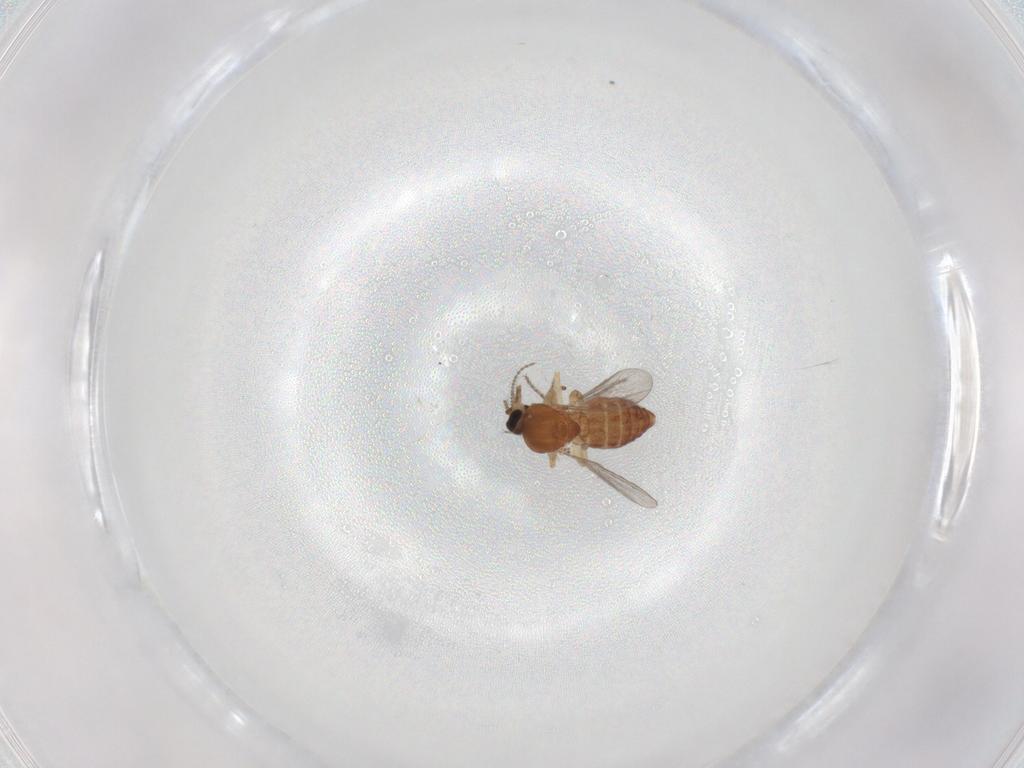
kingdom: Animalia
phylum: Arthropoda
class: Insecta
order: Diptera
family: Ceratopogonidae
